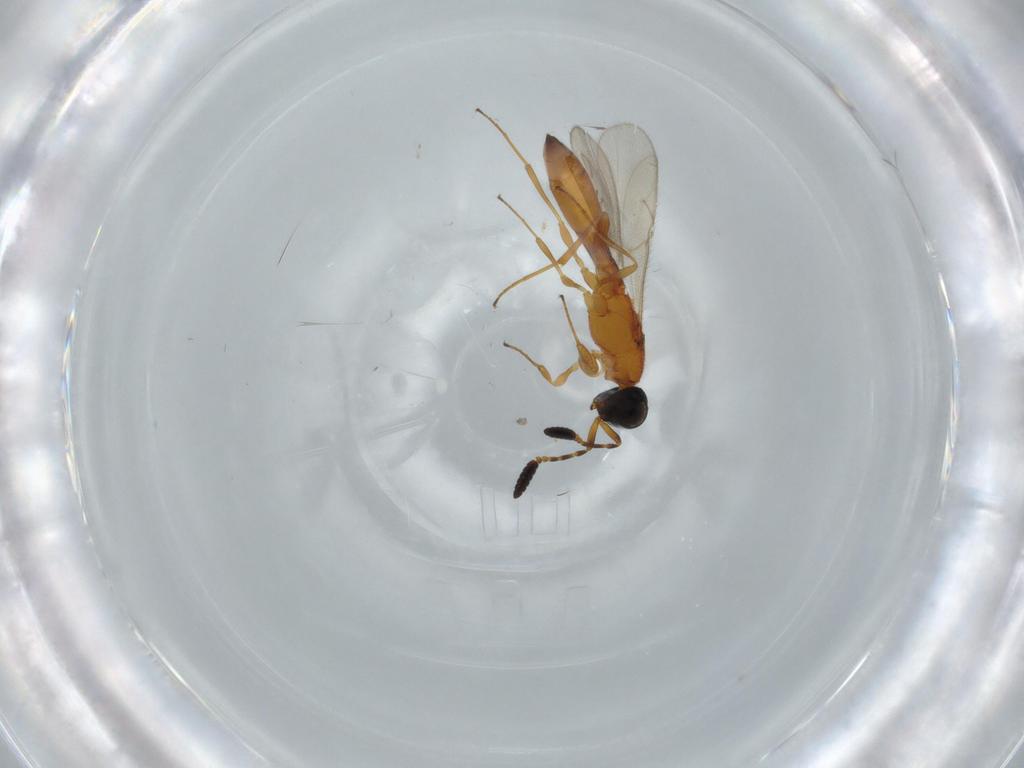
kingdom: Animalia
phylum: Arthropoda
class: Insecta
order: Hymenoptera
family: Scelionidae
